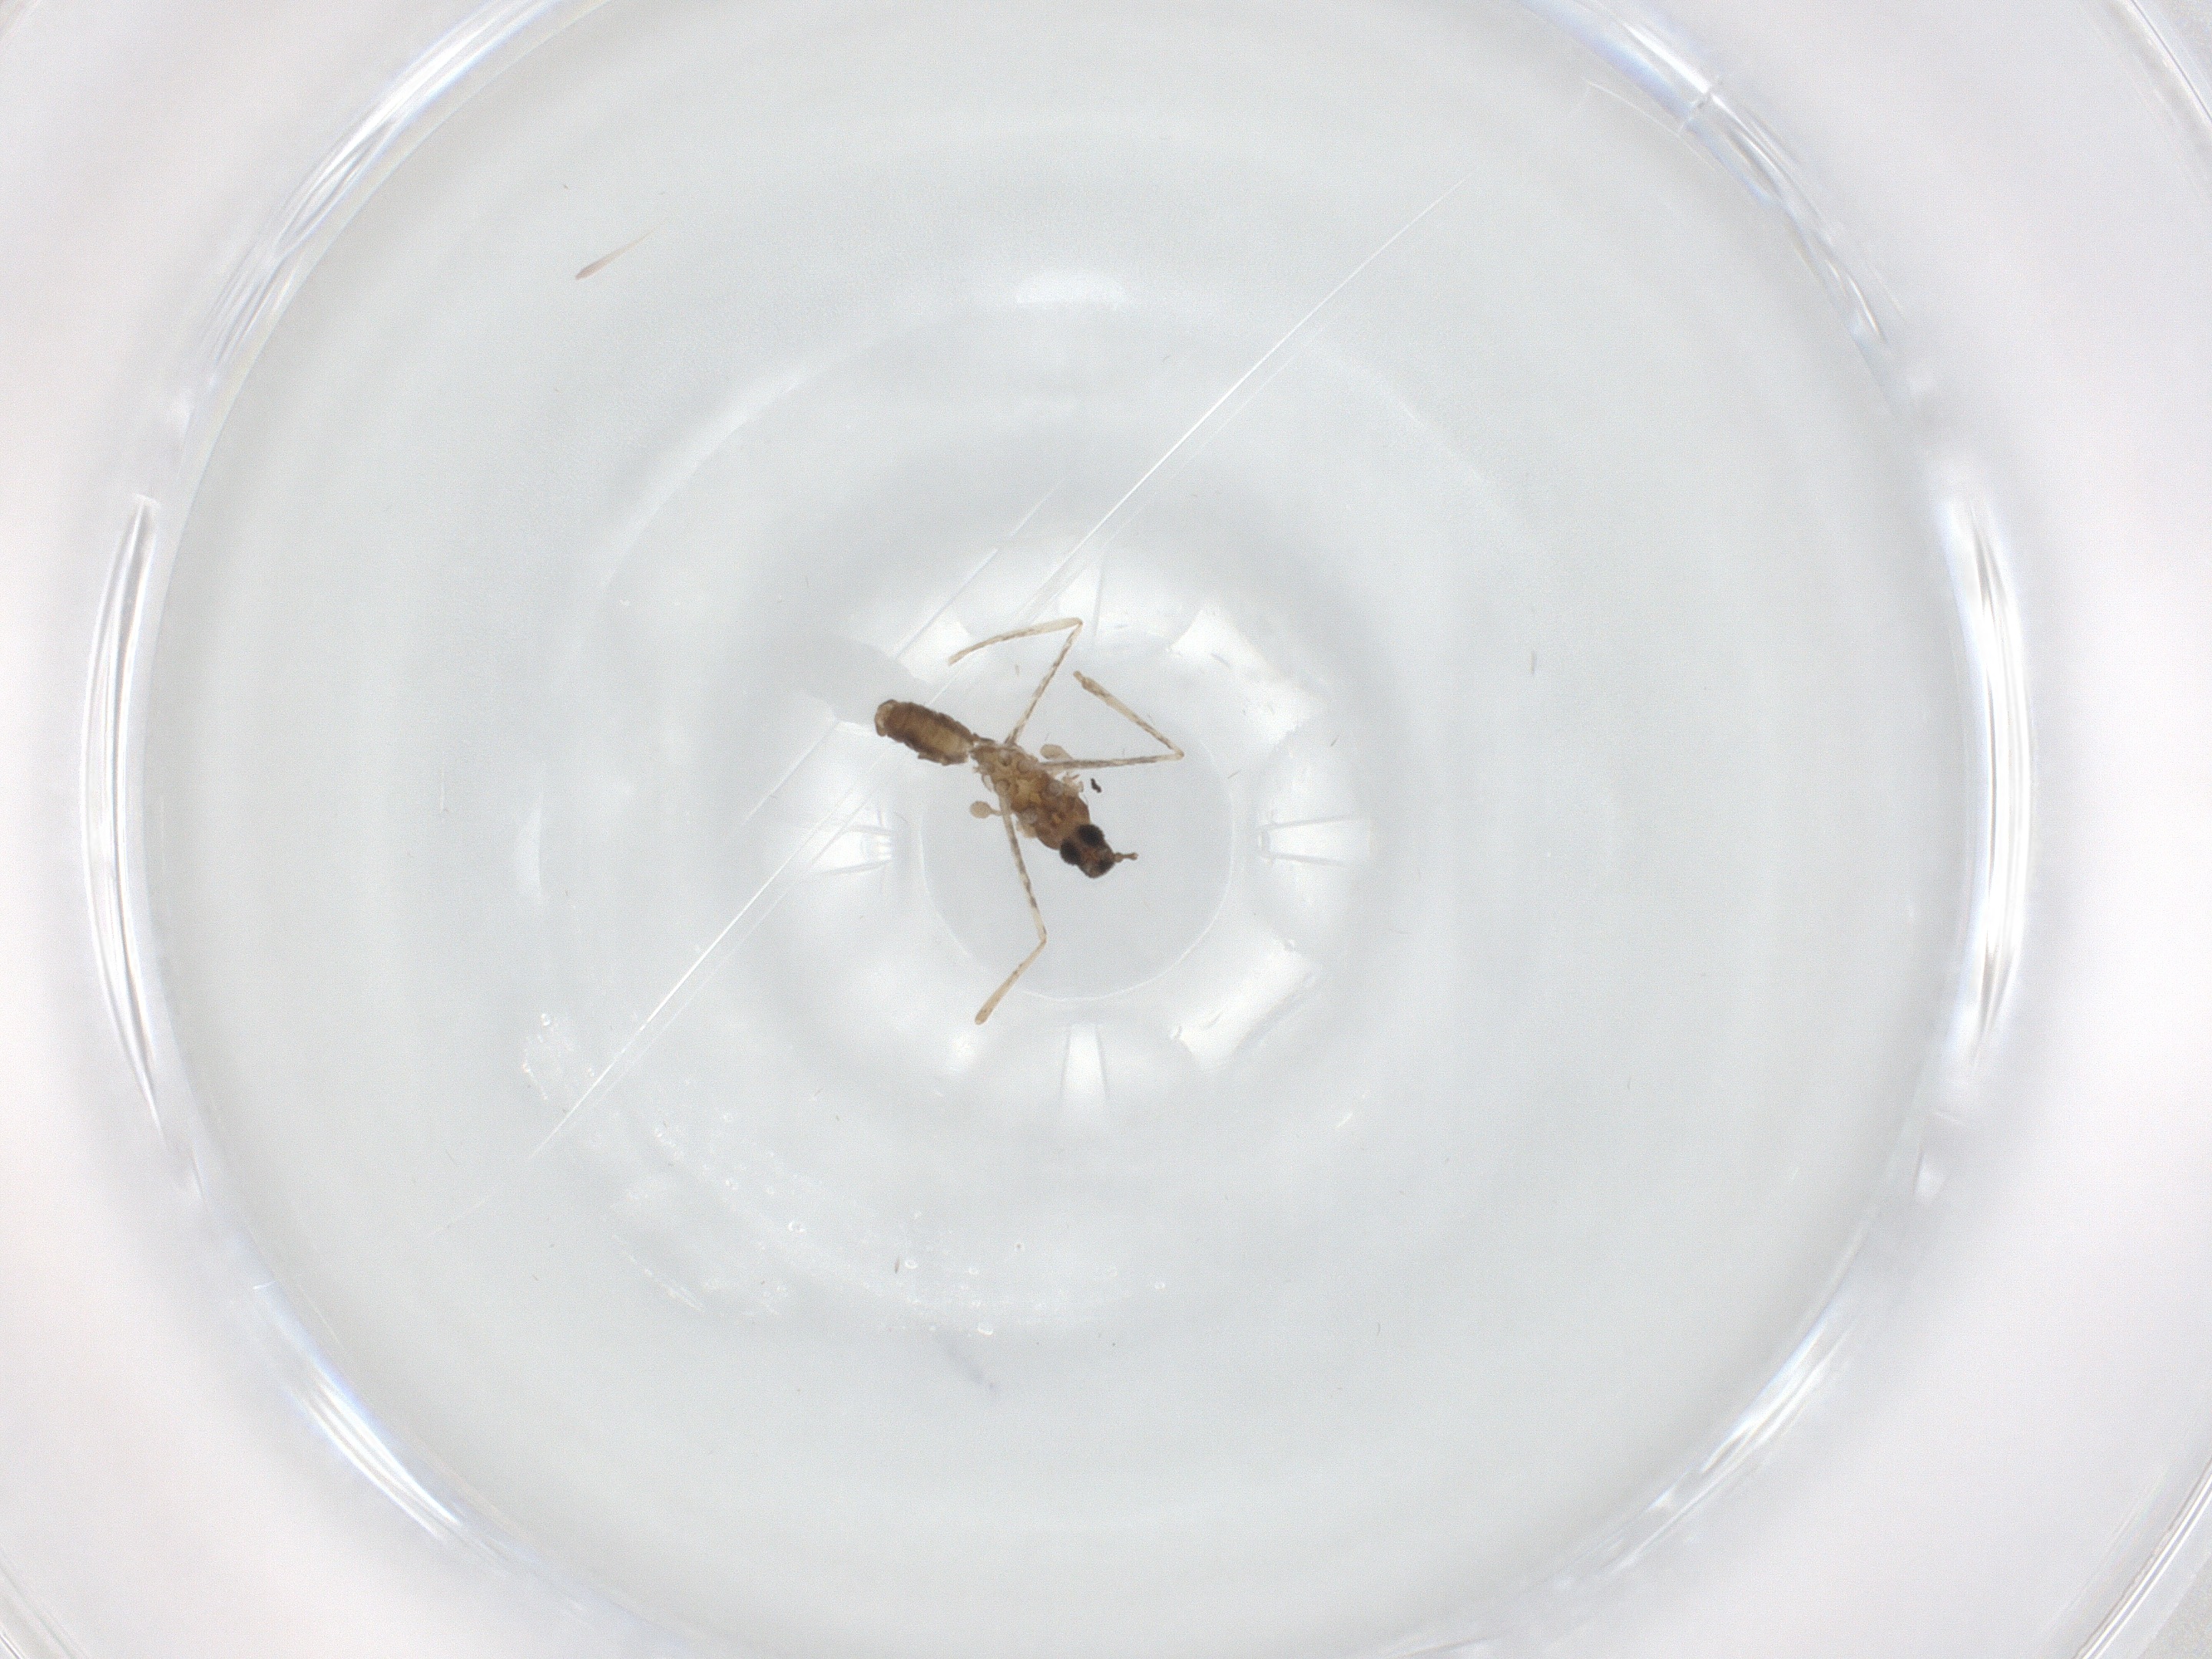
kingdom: Animalia
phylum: Arthropoda
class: Insecta
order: Diptera
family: Cecidomyiidae
